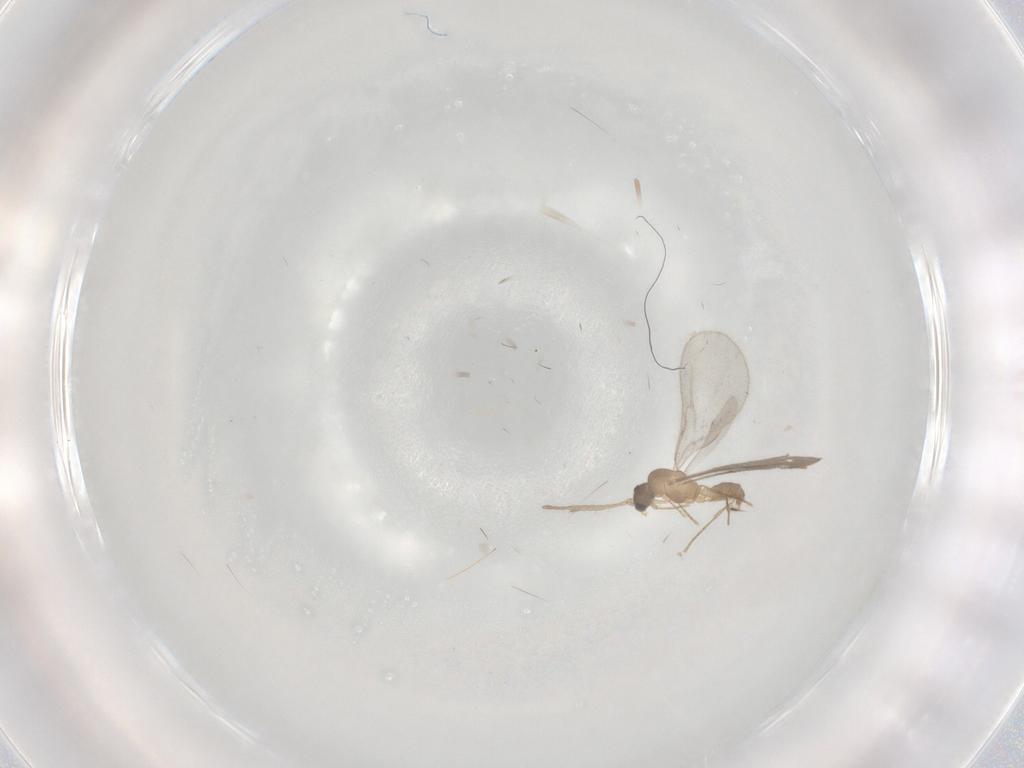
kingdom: Animalia
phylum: Arthropoda
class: Insecta
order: Hymenoptera
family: Formicidae
